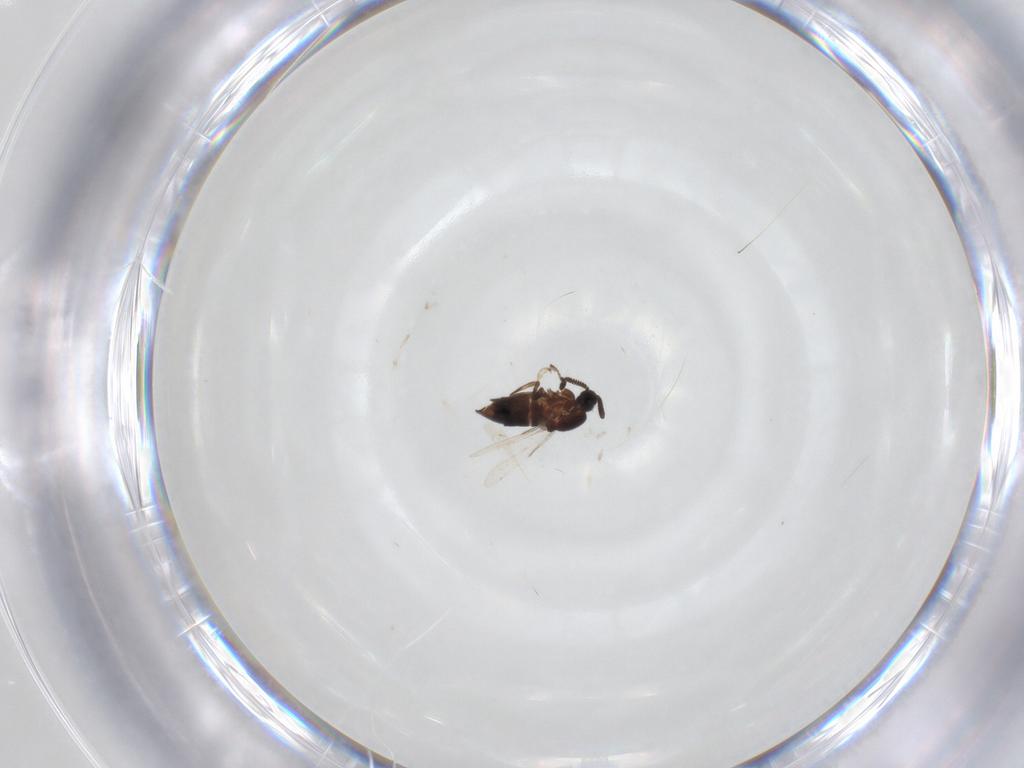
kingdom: Animalia
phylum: Arthropoda
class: Insecta
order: Diptera
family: Scatopsidae
